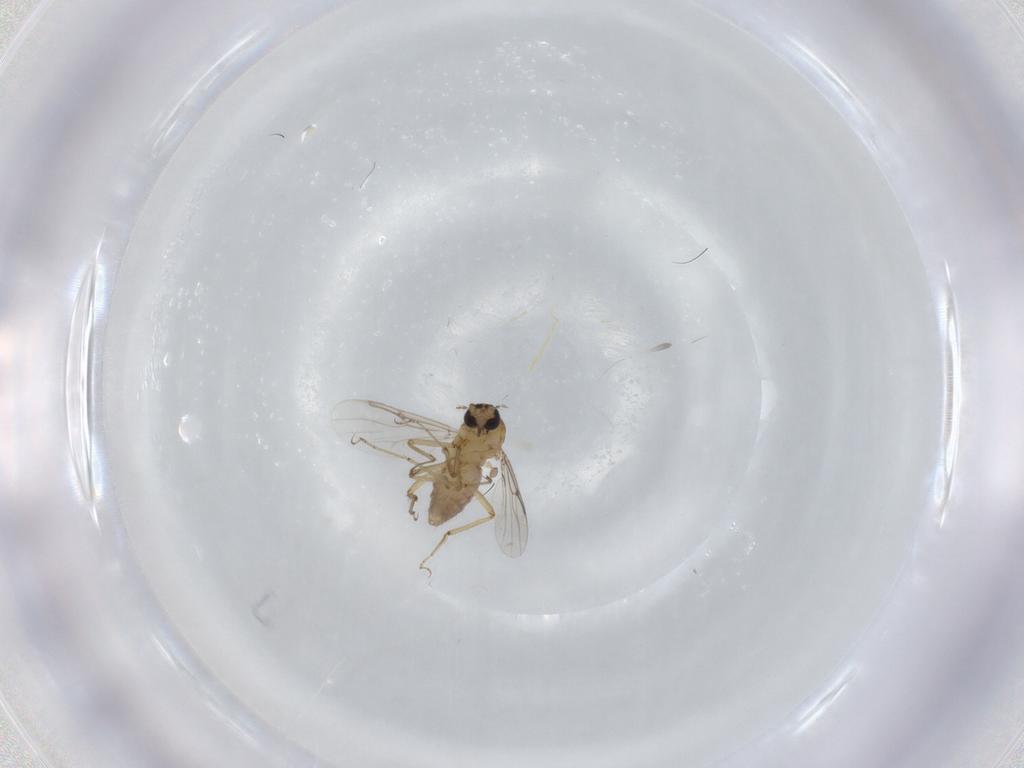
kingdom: Animalia
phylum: Arthropoda
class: Insecta
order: Diptera
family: Ceratopogonidae
